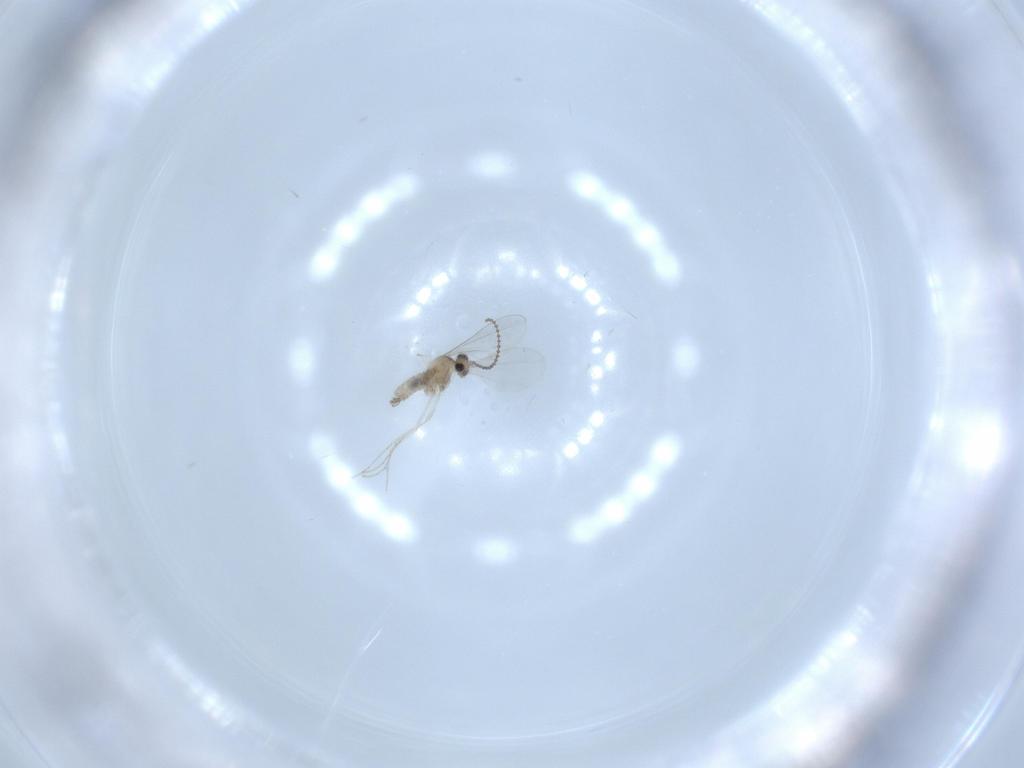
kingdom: Animalia
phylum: Arthropoda
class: Insecta
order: Diptera
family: Cecidomyiidae
